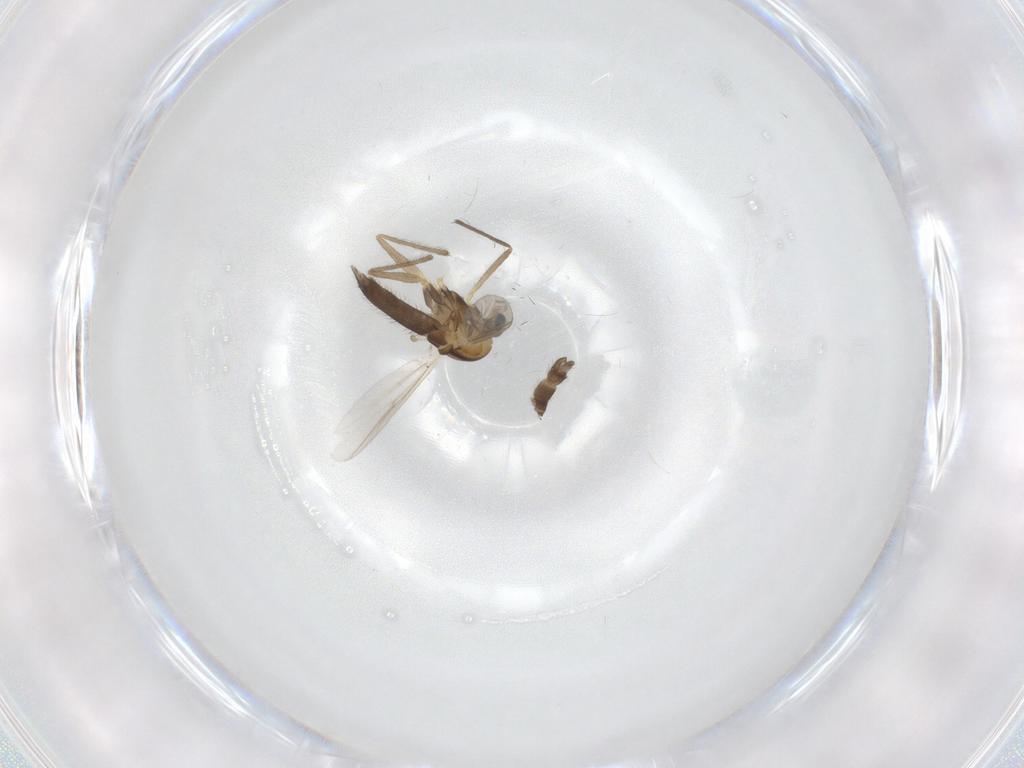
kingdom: Animalia
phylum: Arthropoda
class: Insecta
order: Diptera
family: Chironomidae
